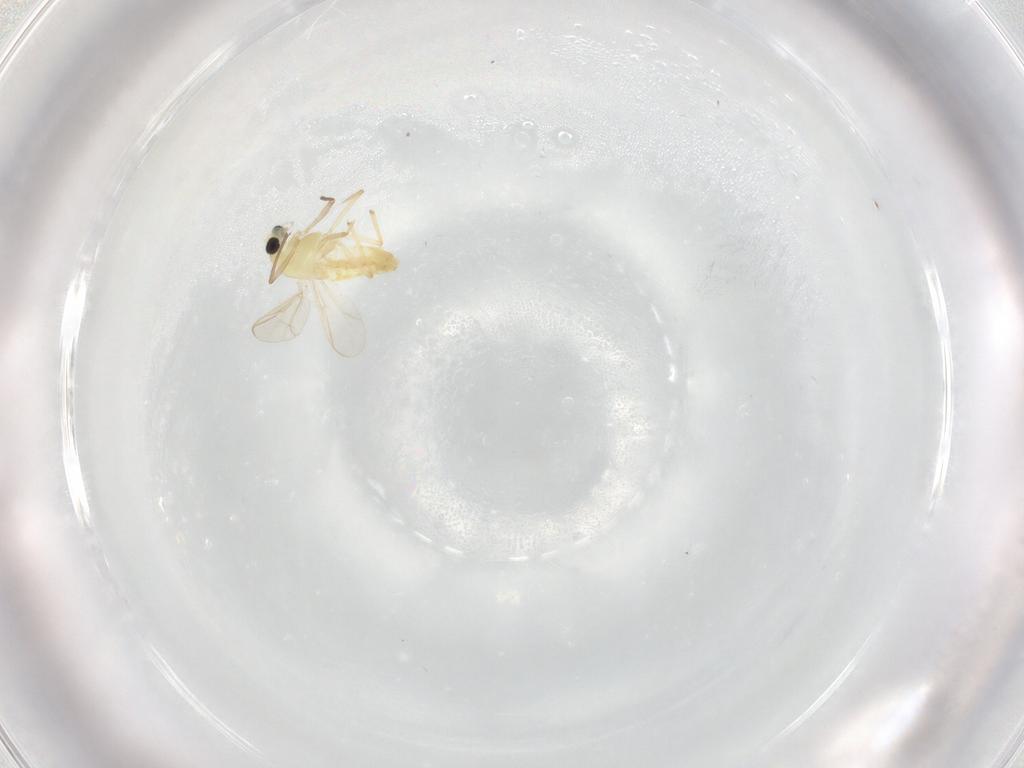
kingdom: Animalia
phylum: Arthropoda
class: Insecta
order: Diptera
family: Chironomidae
